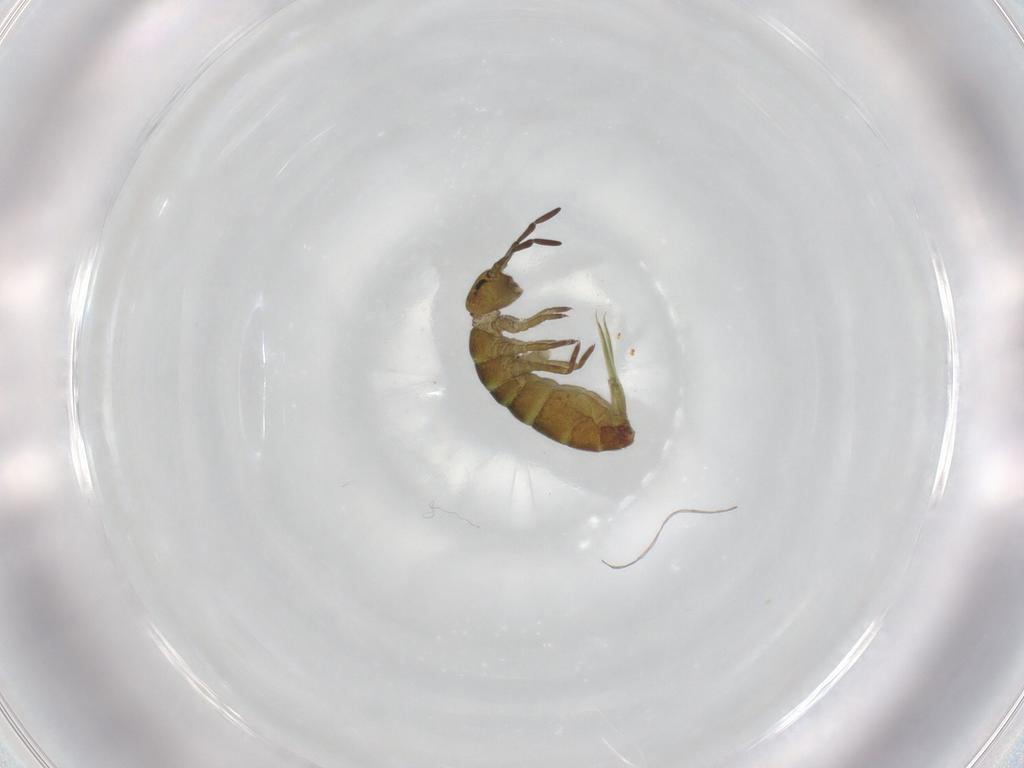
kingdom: Animalia
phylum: Arthropoda
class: Collembola
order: Entomobryomorpha
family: Isotomidae
